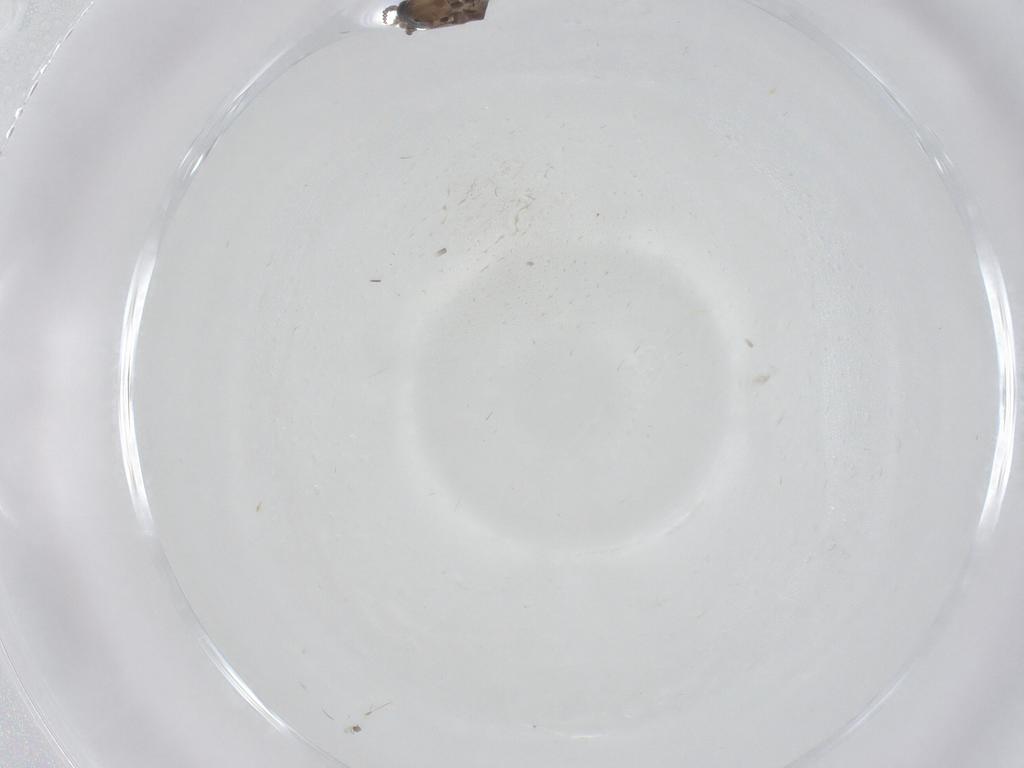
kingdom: Animalia
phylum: Arthropoda
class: Insecta
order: Diptera
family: Psychodidae
